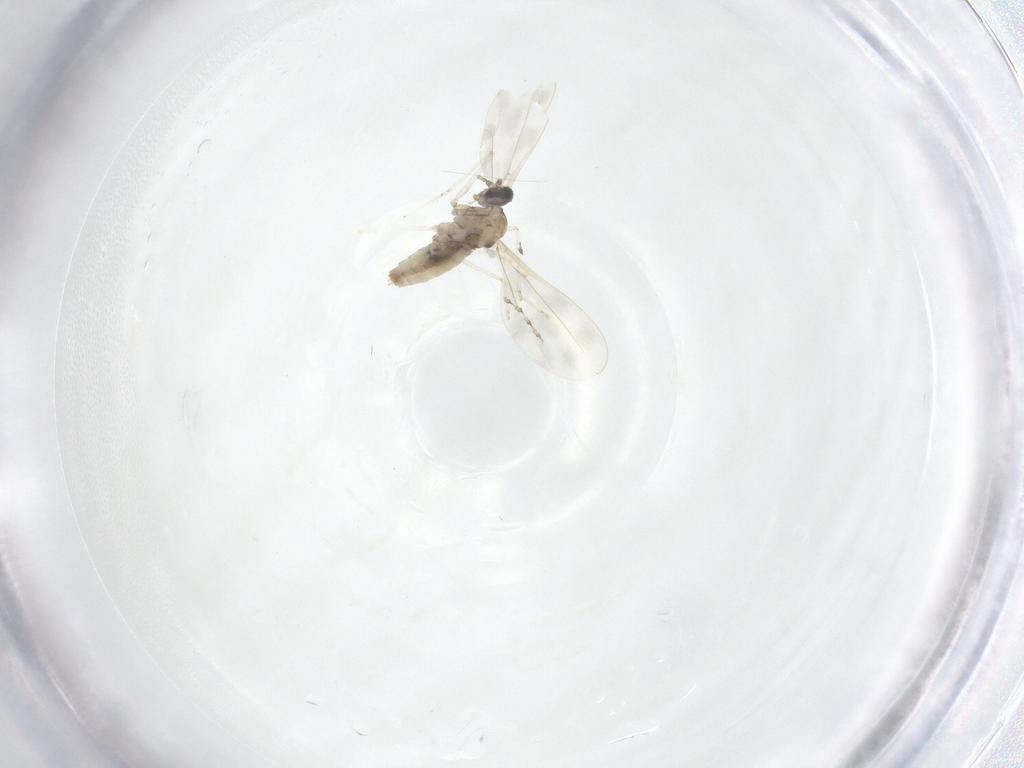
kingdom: Animalia
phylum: Arthropoda
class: Insecta
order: Diptera
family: Cecidomyiidae
